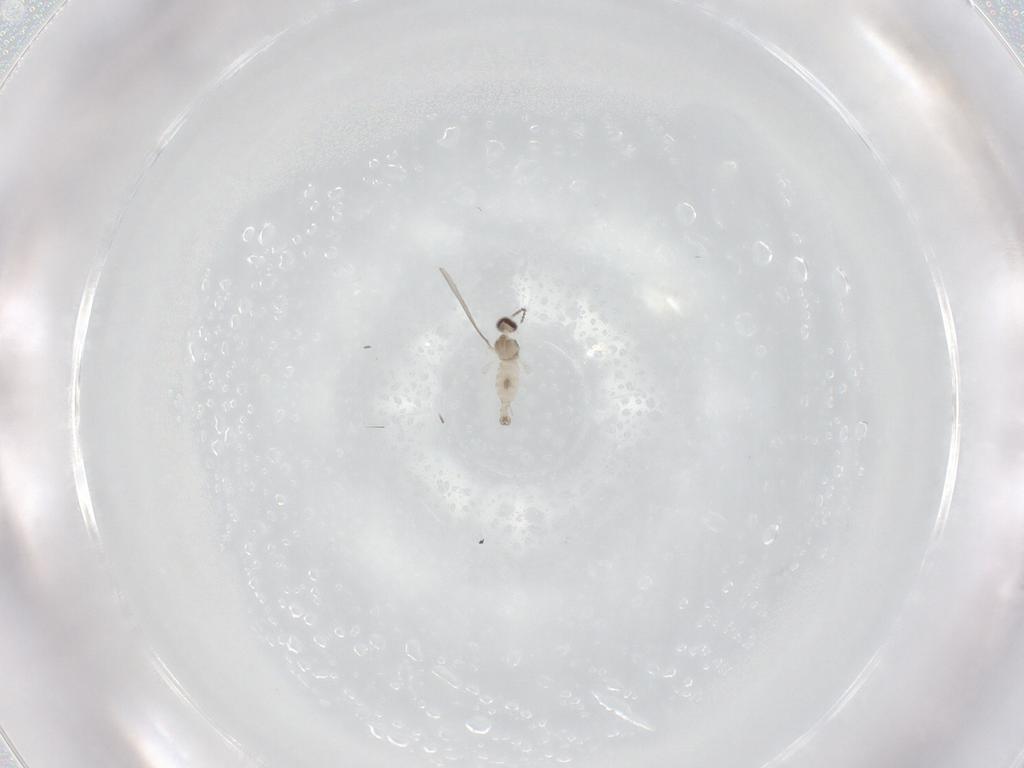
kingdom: Animalia
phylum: Arthropoda
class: Insecta
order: Diptera
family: Cecidomyiidae
